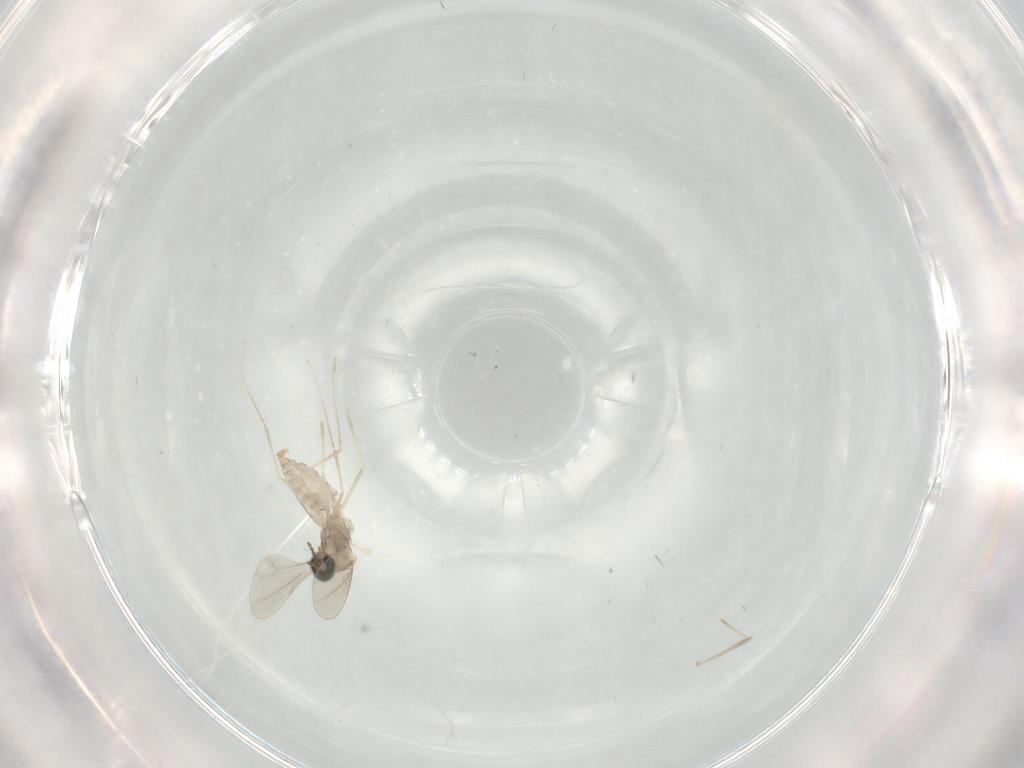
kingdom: Animalia
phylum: Arthropoda
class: Insecta
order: Diptera
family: Cecidomyiidae
